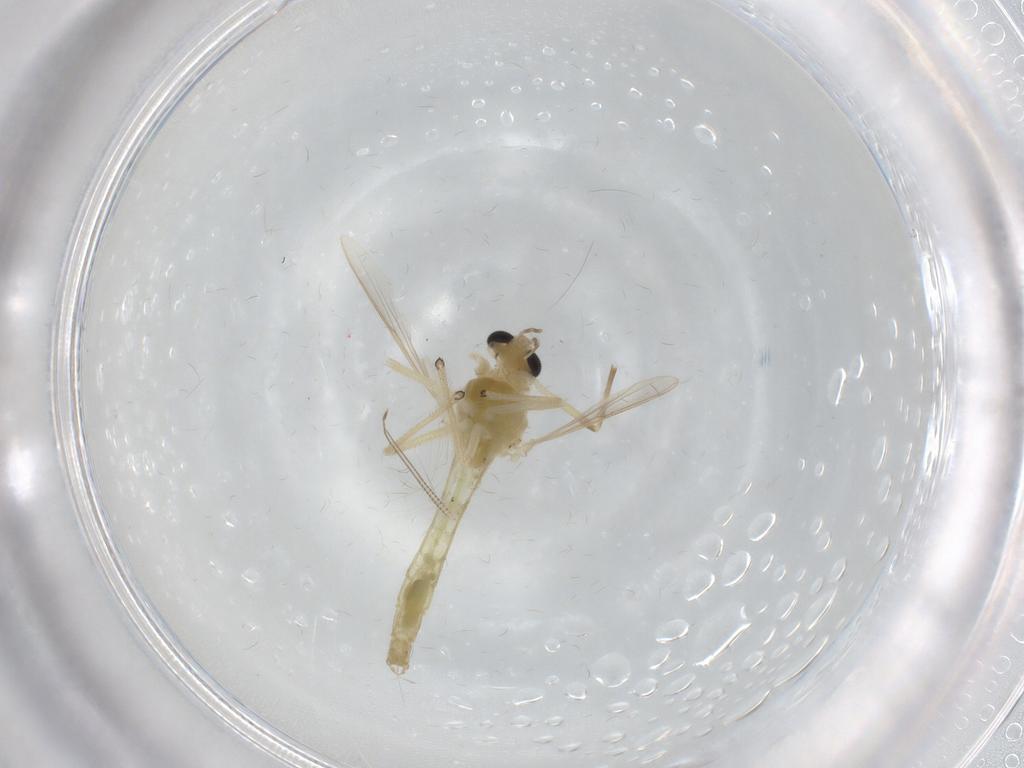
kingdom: Animalia
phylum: Arthropoda
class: Insecta
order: Diptera
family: Chironomidae
